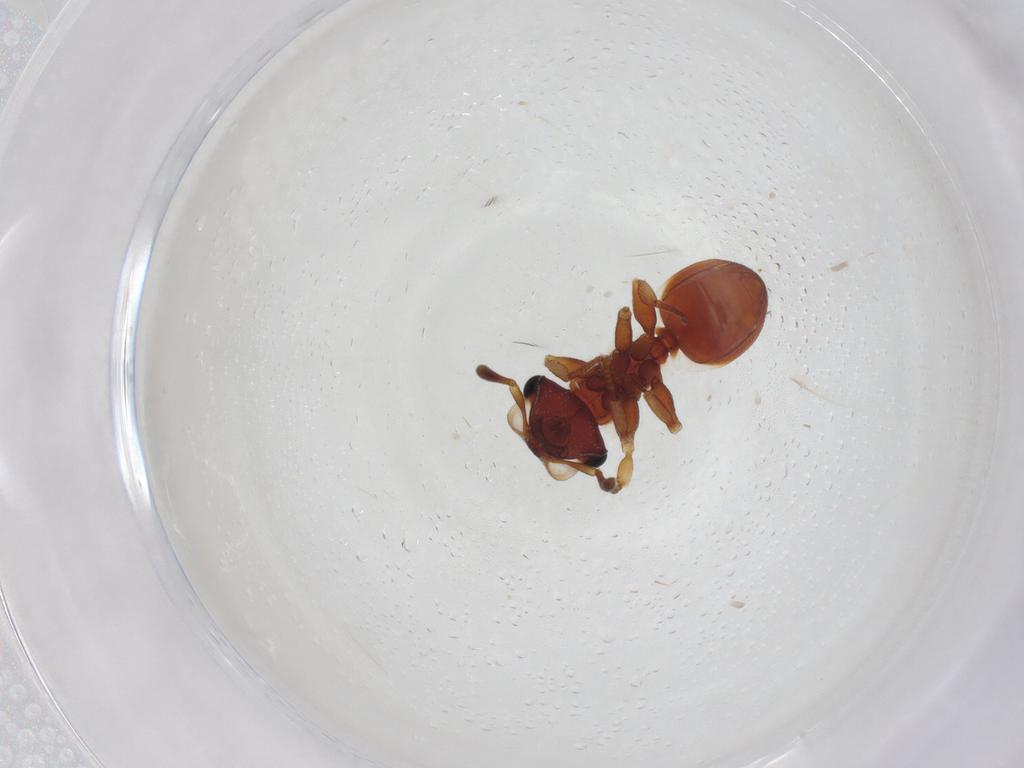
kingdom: Animalia
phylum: Arthropoda
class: Insecta
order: Hymenoptera
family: Formicidae
